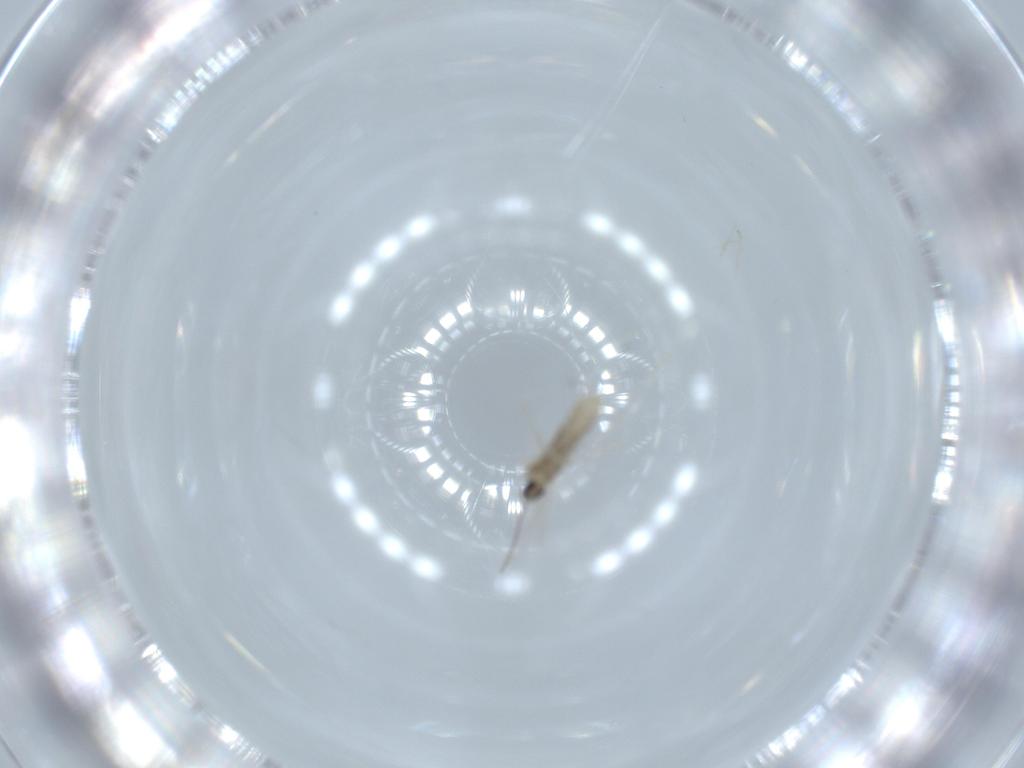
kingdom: Animalia
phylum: Arthropoda
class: Insecta
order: Diptera
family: Cecidomyiidae
